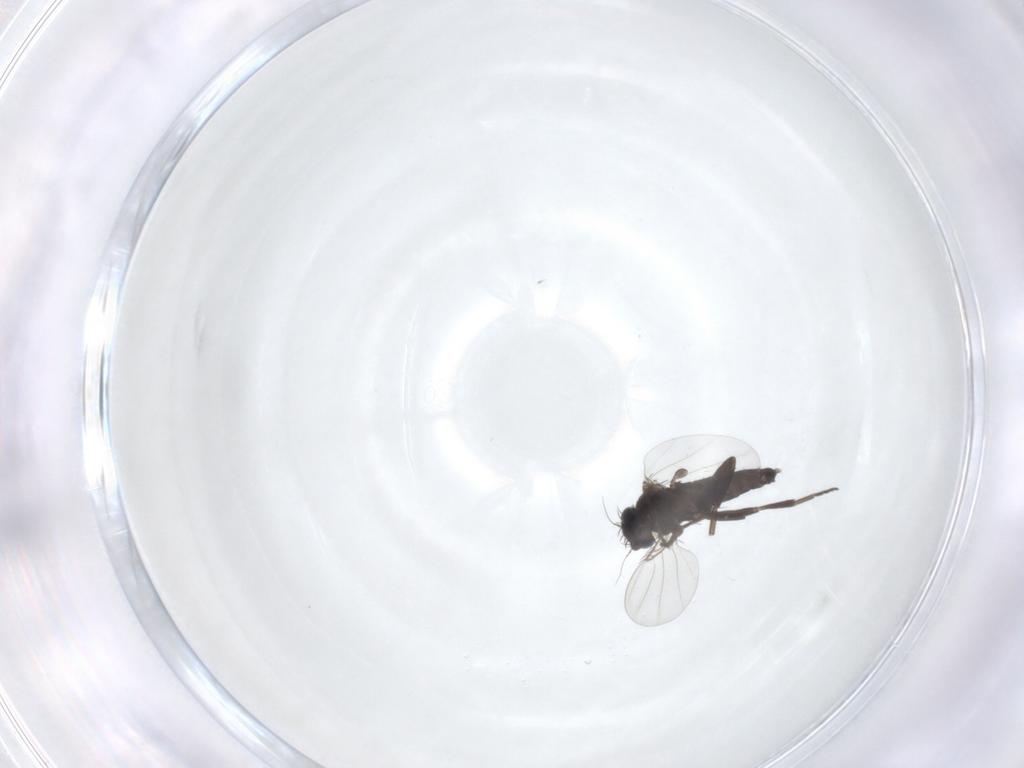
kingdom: Animalia
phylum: Arthropoda
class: Insecta
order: Diptera
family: Phoridae
